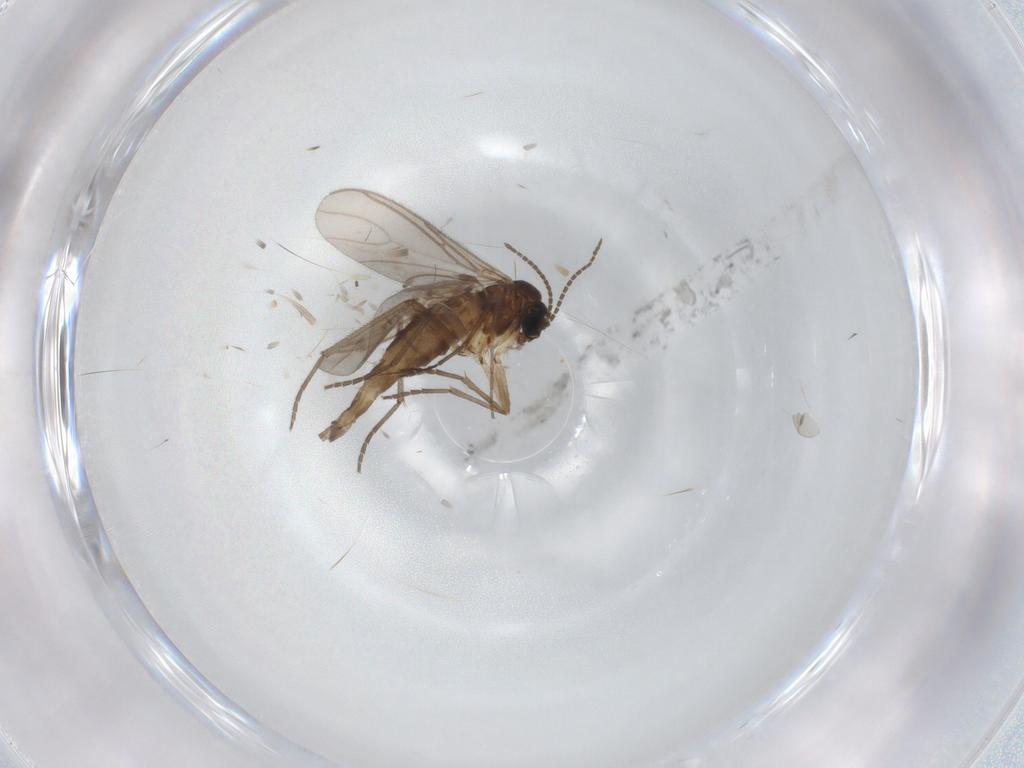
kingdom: Animalia
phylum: Arthropoda
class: Insecta
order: Diptera
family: Sciaridae
